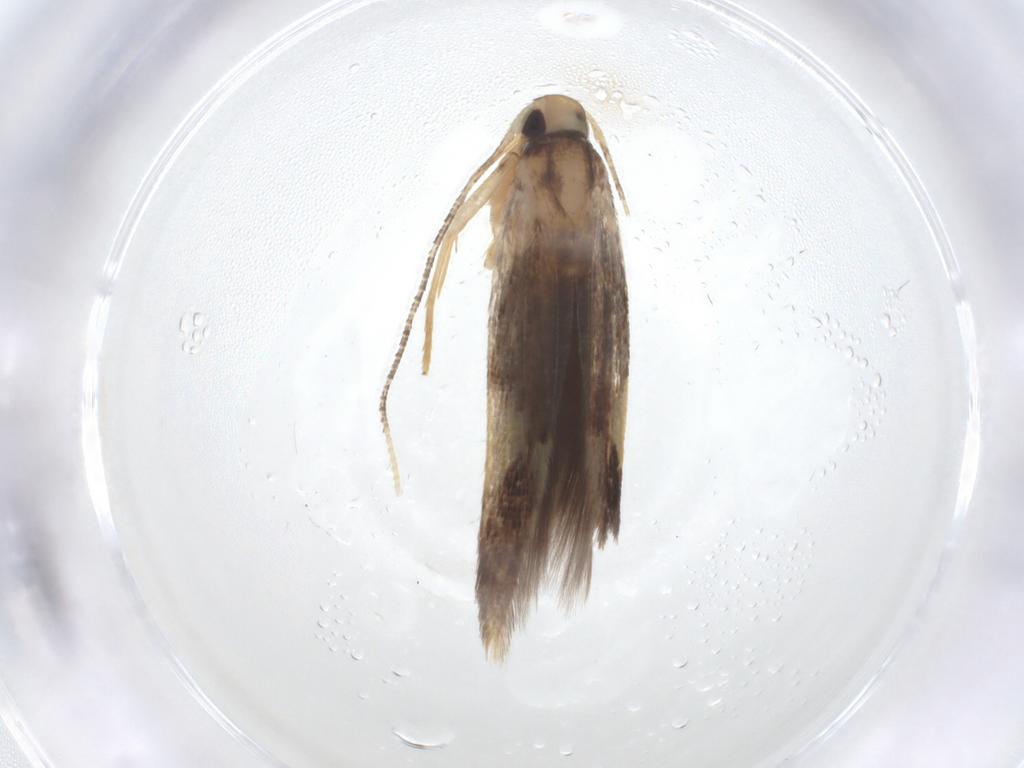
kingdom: Animalia
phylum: Arthropoda
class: Insecta
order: Lepidoptera
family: Cosmopterigidae
